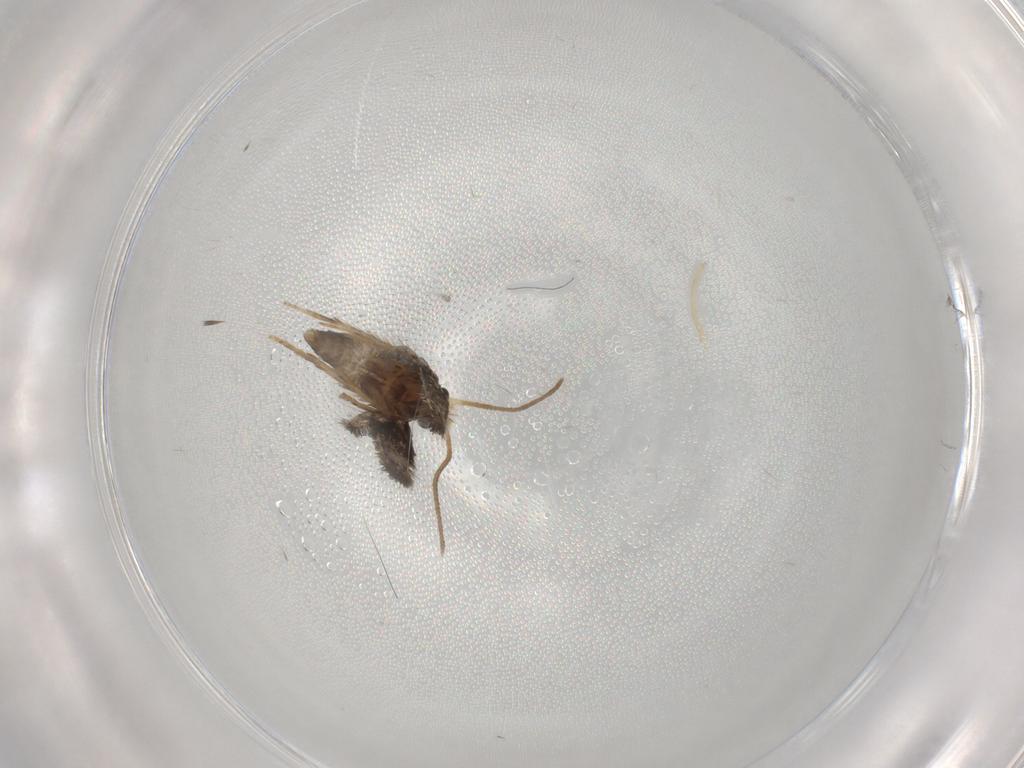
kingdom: Animalia
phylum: Arthropoda
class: Insecta
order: Lepidoptera
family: Nepticulidae
